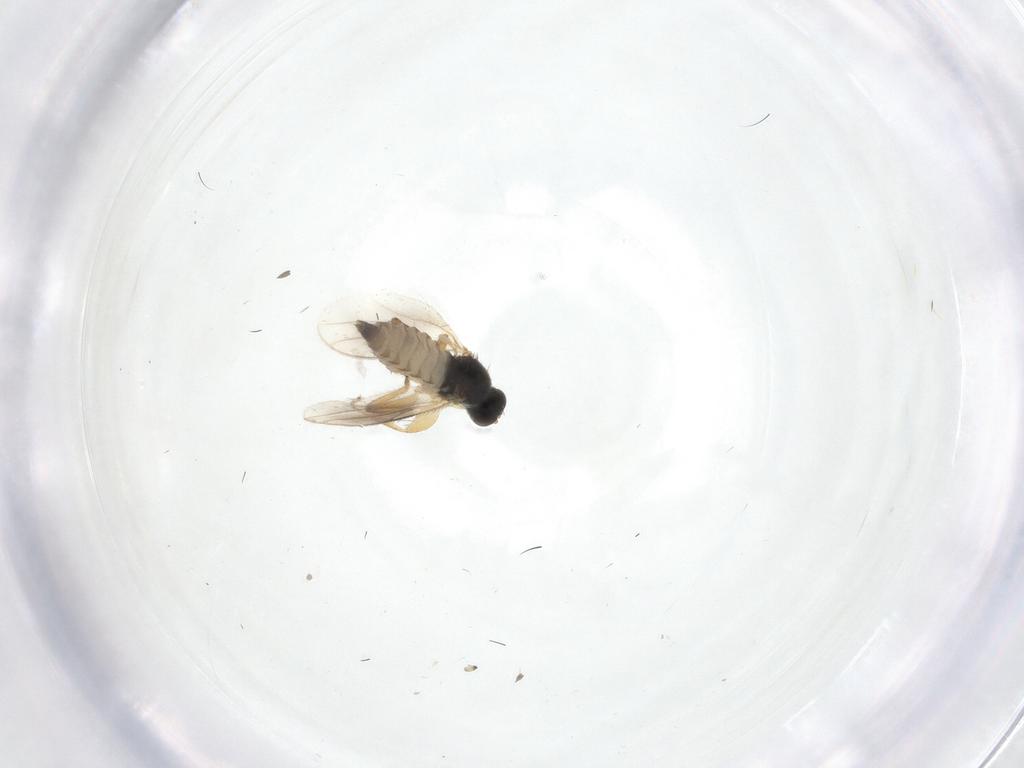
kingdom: Animalia
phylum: Arthropoda
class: Insecta
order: Diptera
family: Hybotidae
